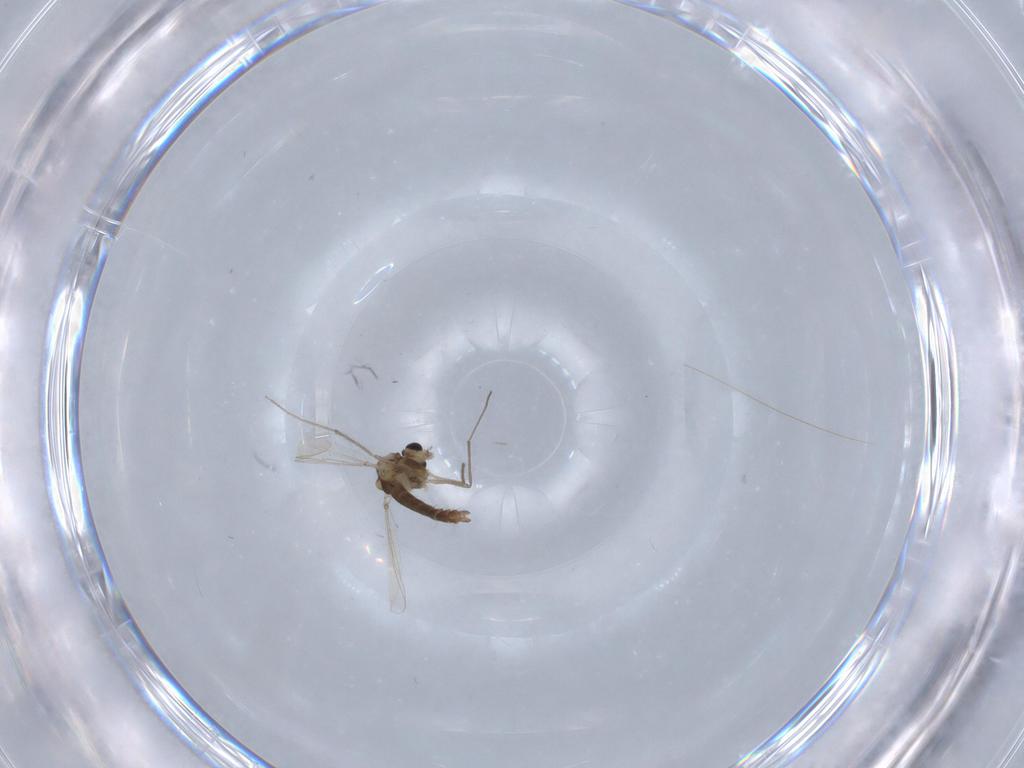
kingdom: Animalia
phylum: Arthropoda
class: Insecta
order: Diptera
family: Chironomidae
